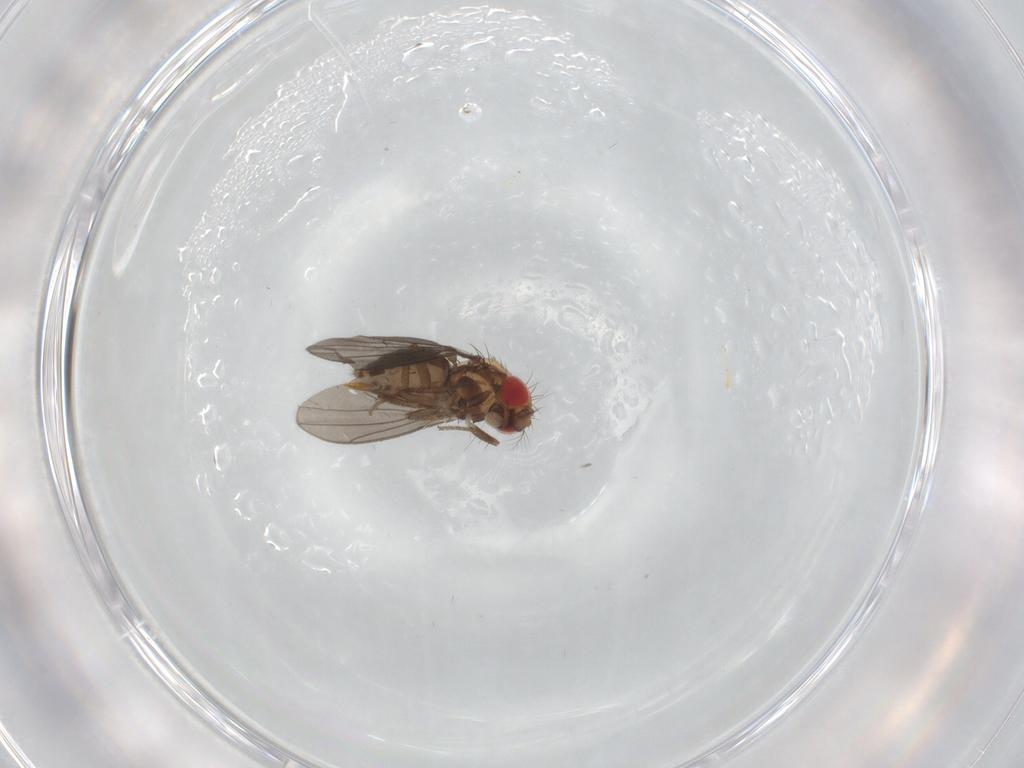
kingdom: Animalia
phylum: Arthropoda
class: Insecta
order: Diptera
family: Drosophilidae
